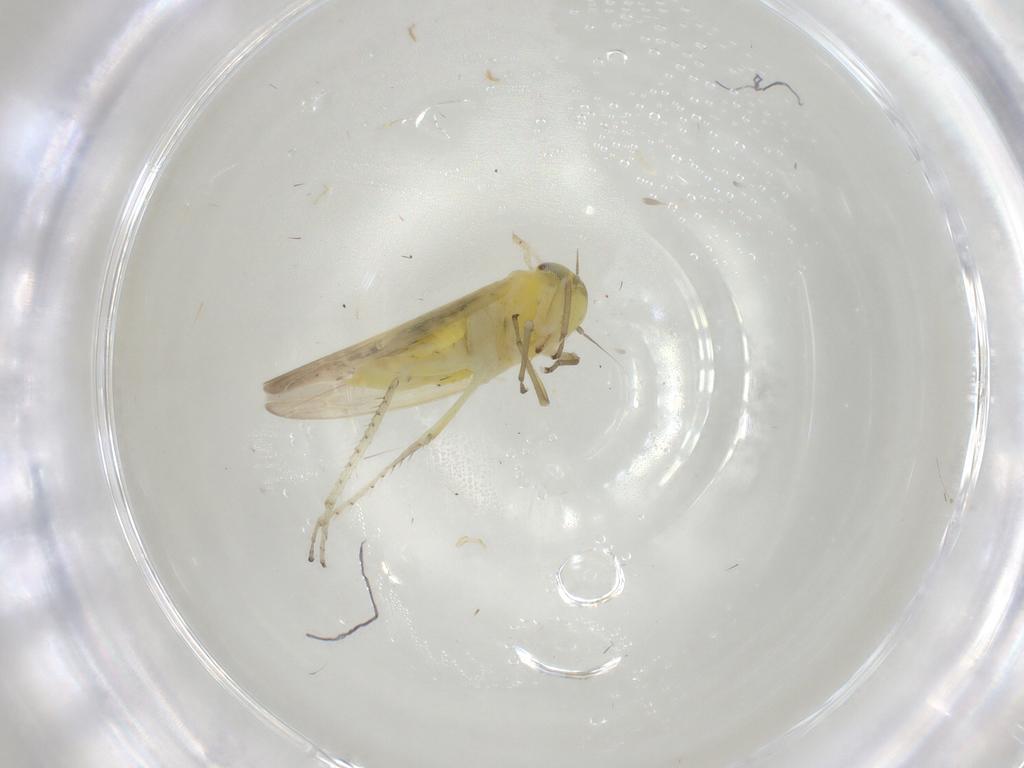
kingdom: Animalia
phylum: Arthropoda
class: Insecta
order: Hemiptera
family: Cicadellidae
